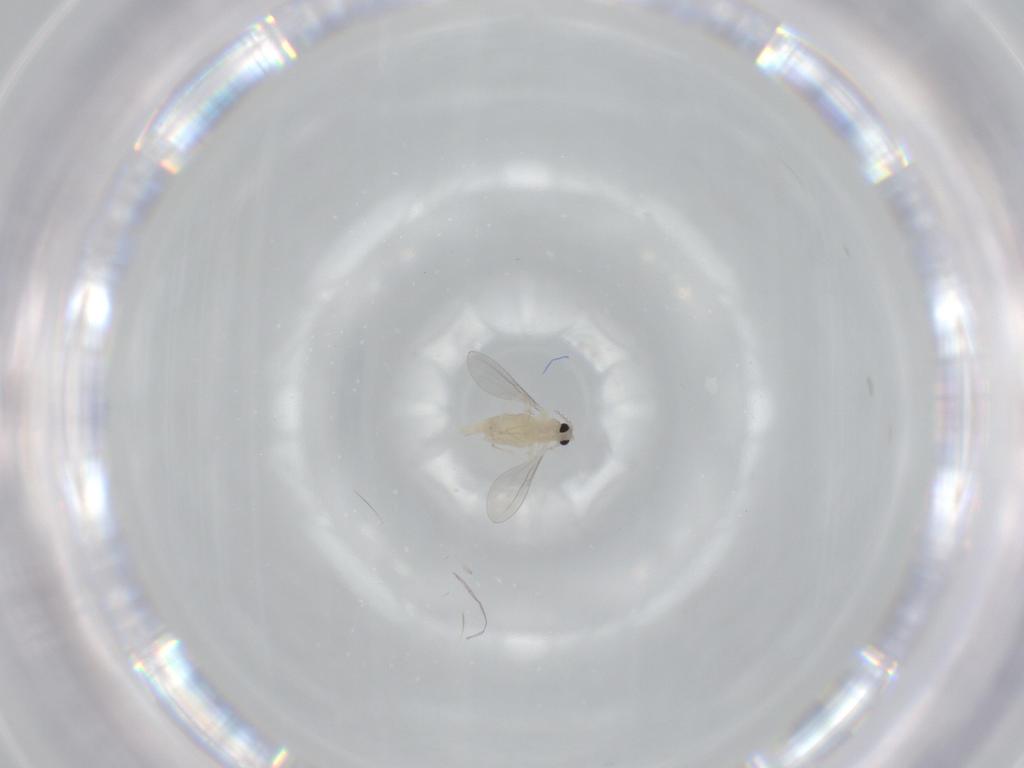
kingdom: Animalia
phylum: Arthropoda
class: Insecta
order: Diptera
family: Cecidomyiidae
